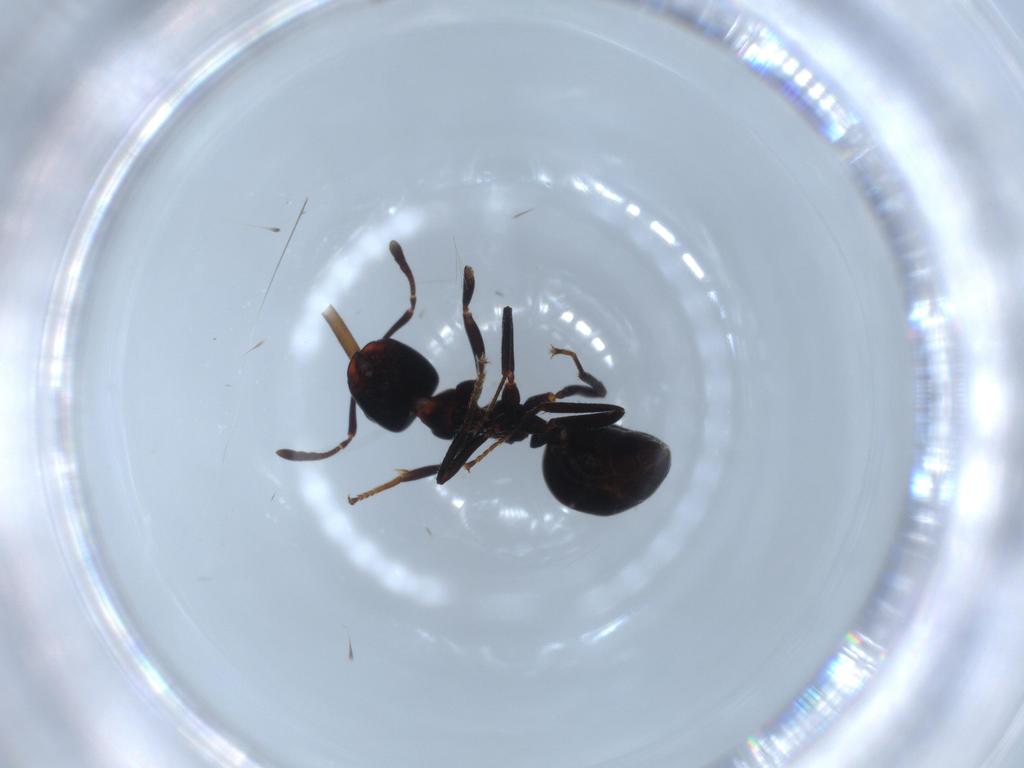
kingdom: Animalia
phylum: Arthropoda
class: Insecta
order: Hymenoptera
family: Formicidae
